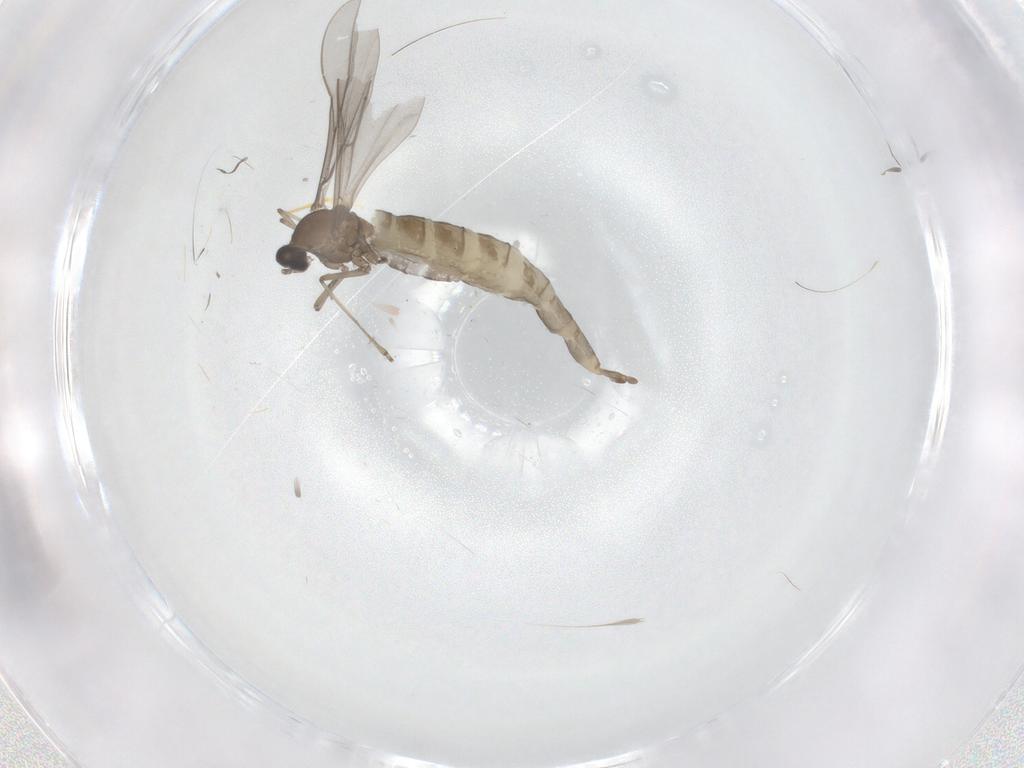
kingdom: Animalia
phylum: Arthropoda
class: Insecta
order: Diptera
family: Cecidomyiidae
